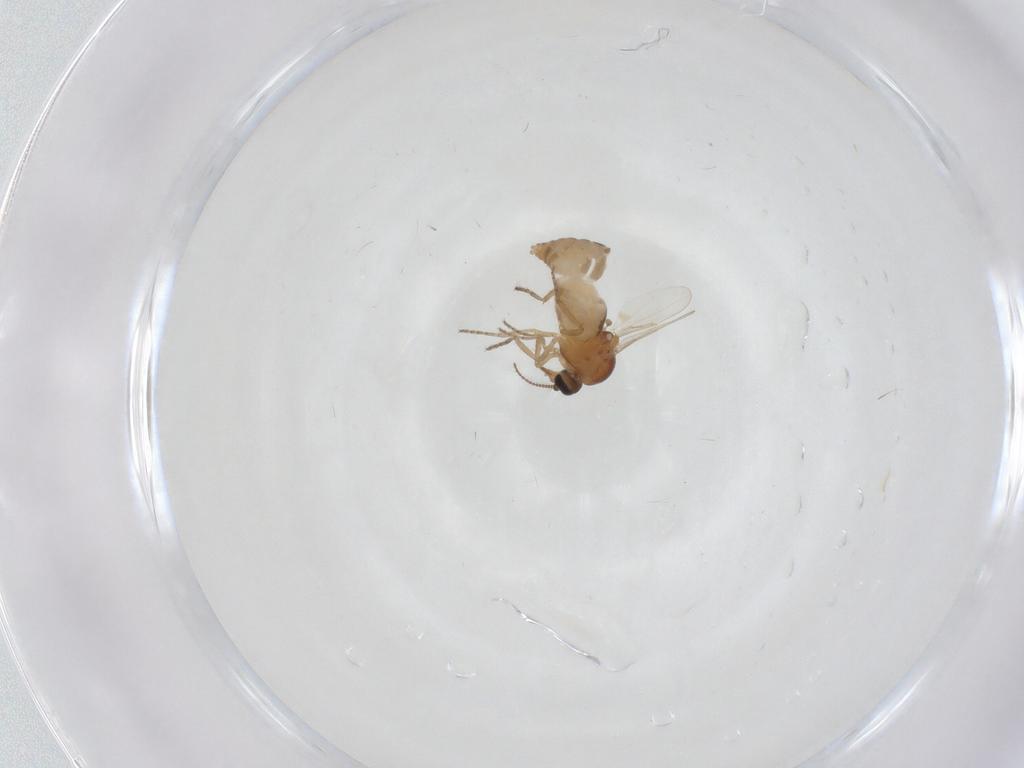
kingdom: Animalia
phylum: Arthropoda
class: Insecta
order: Diptera
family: Ceratopogonidae
